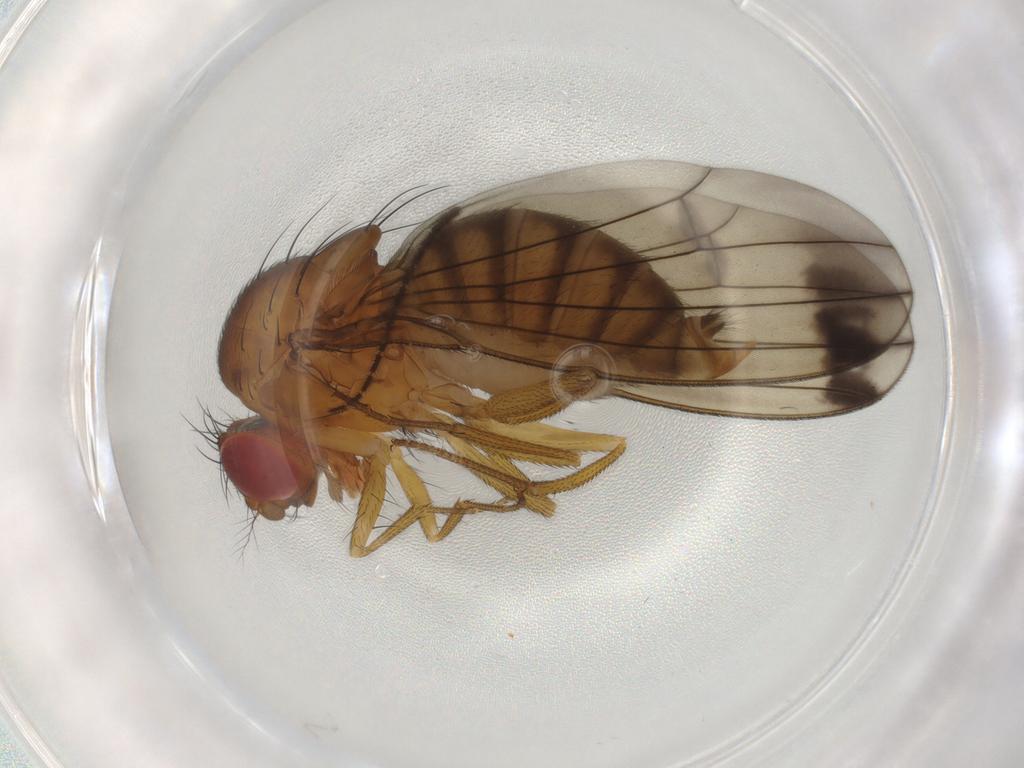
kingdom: Animalia
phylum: Arthropoda
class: Insecta
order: Diptera
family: Drosophilidae
